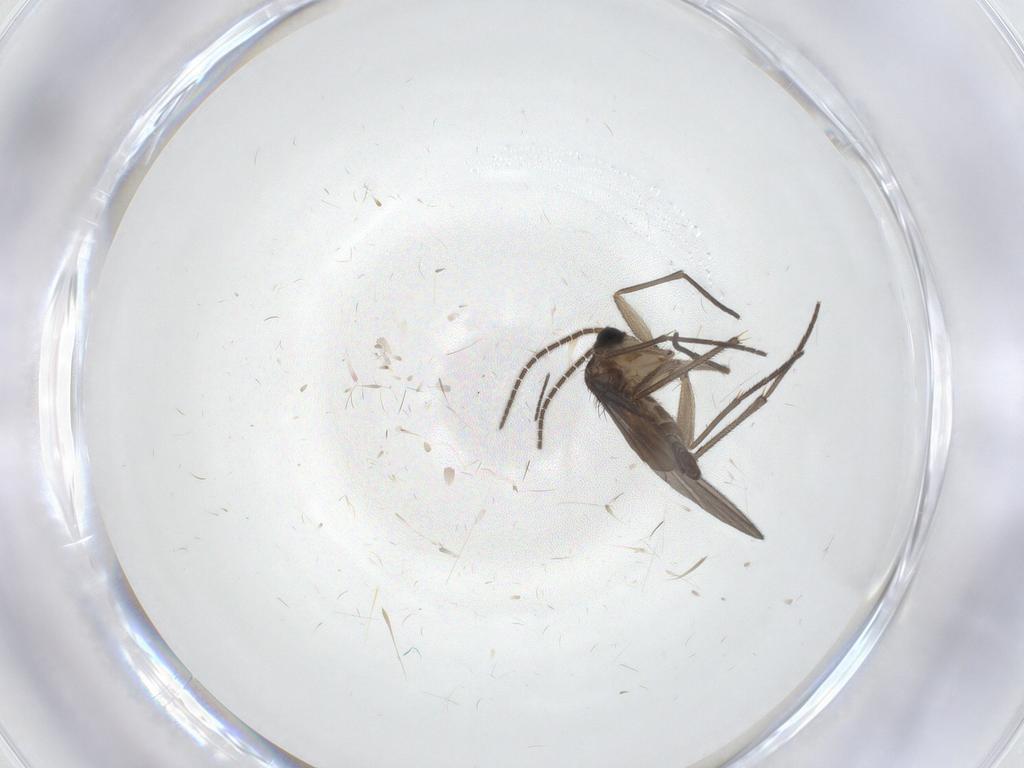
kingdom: Animalia
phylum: Arthropoda
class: Insecta
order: Diptera
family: Sciaridae
